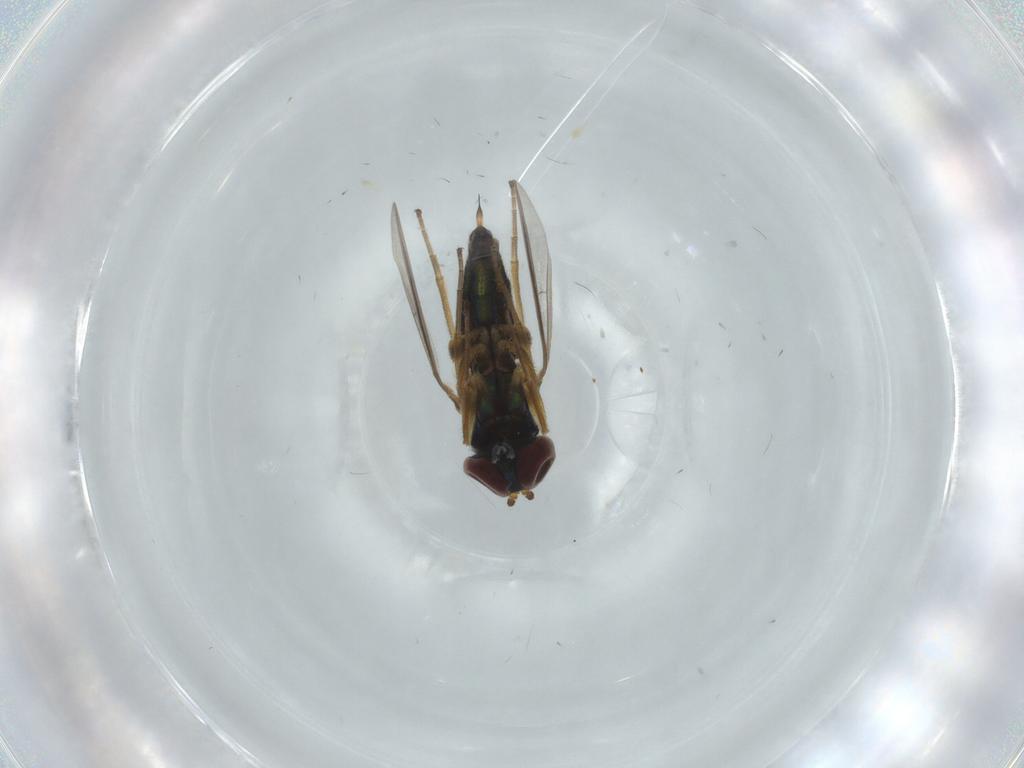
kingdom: Animalia
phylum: Arthropoda
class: Insecta
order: Diptera
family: Dolichopodidae
